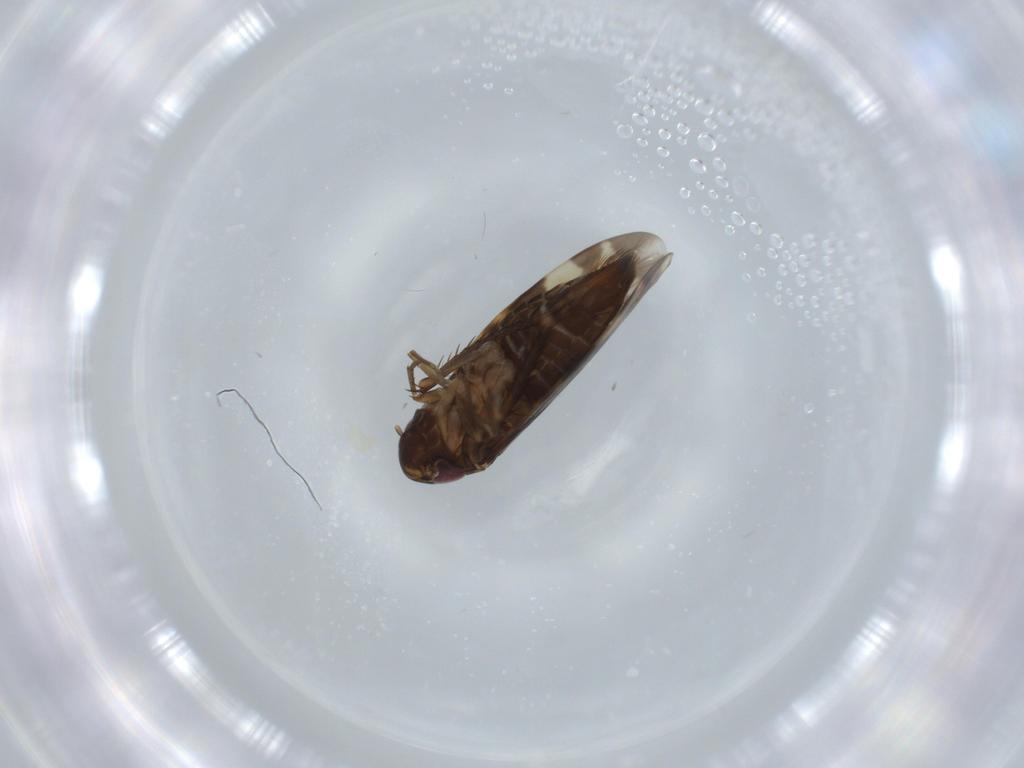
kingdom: Animalia
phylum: Arthropoda
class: Insecta
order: Hemiptera
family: Cicadellidae
